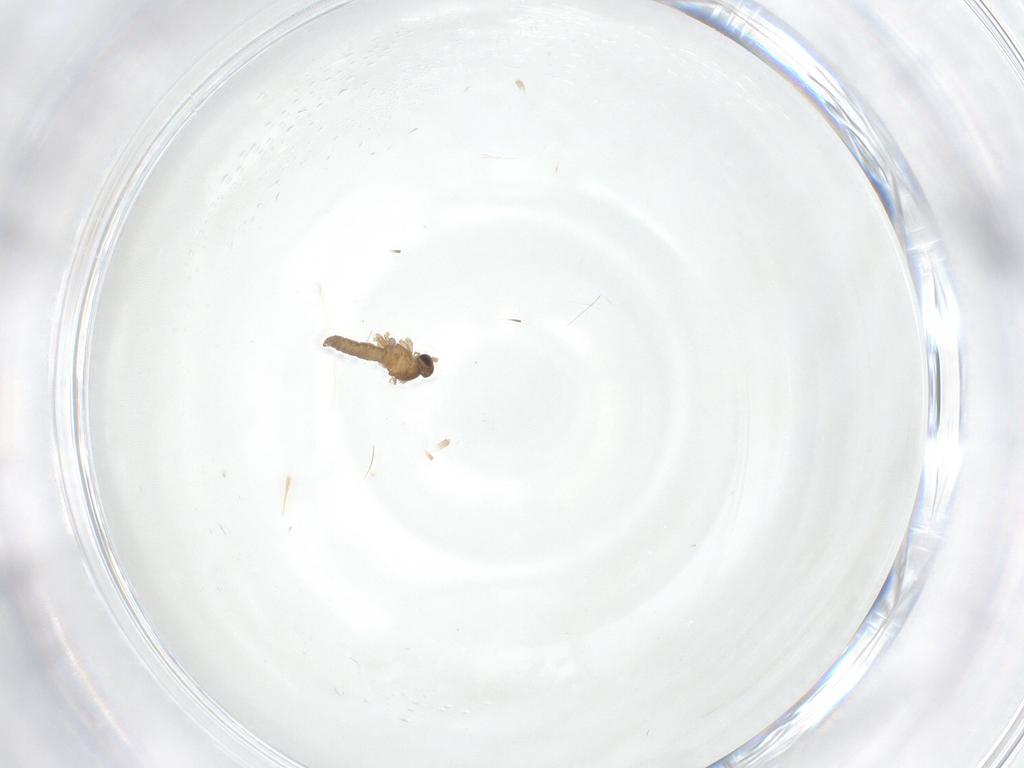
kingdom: Animalia
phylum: Arthropoda
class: Insecta
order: Diptera
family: Cecidomyiidae
